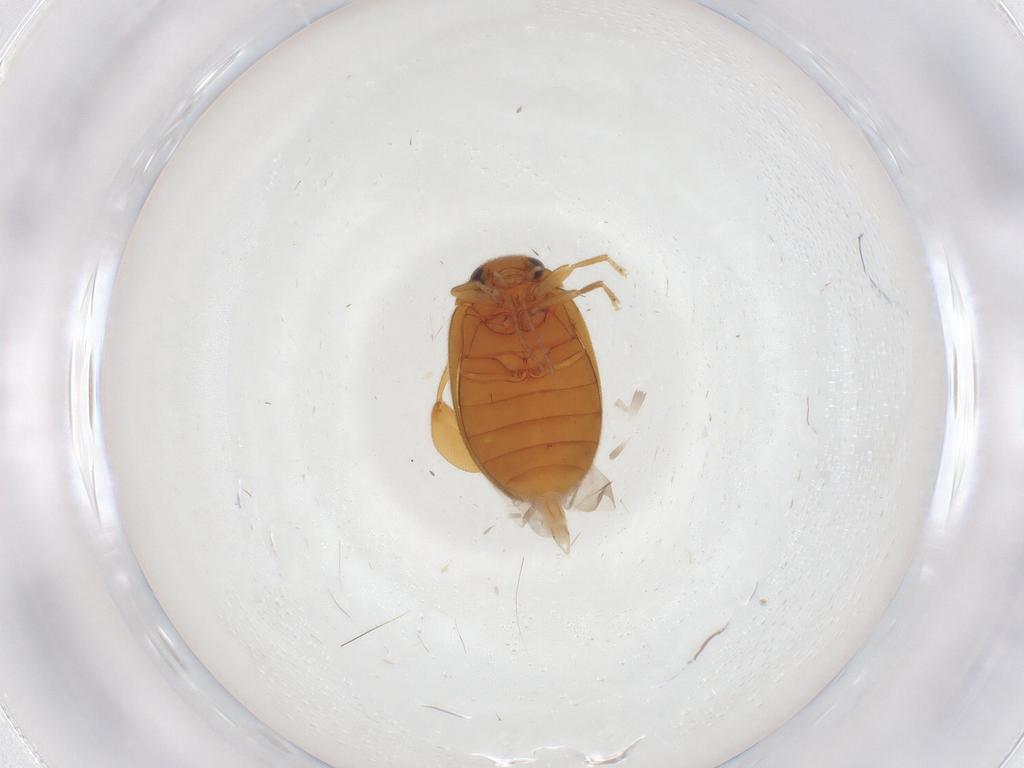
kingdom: Animalia
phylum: Arthropoda
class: Insecta
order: Coleoptera
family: Scirtidae
